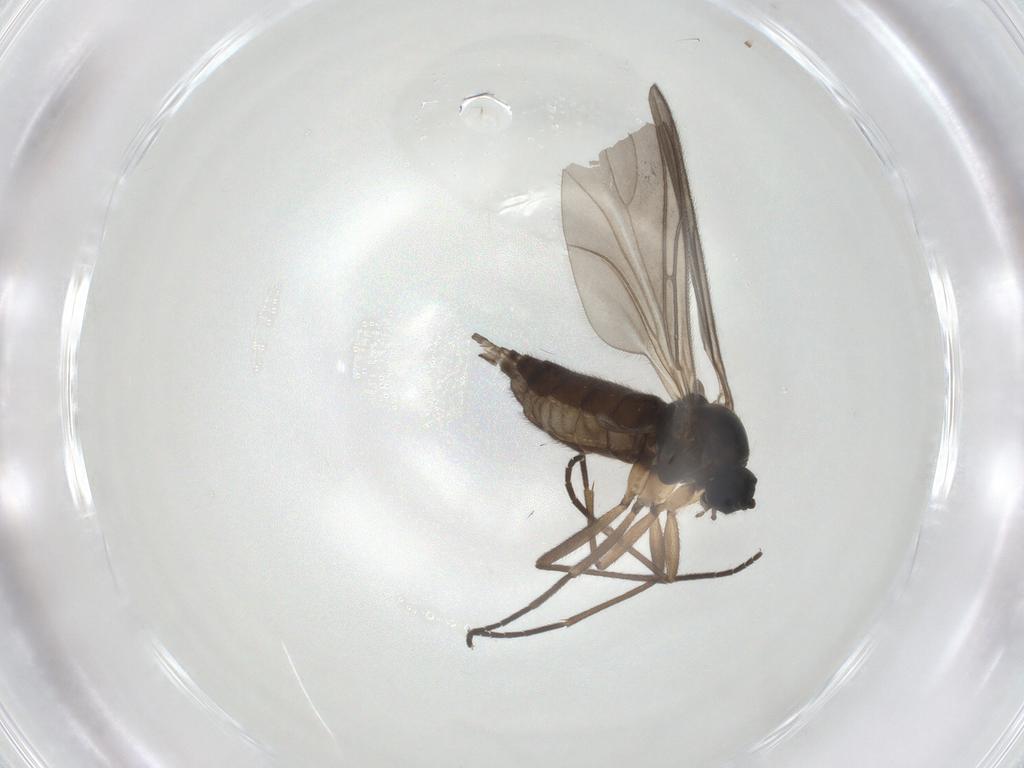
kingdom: Animalia
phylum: Arthropoda
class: Insecta
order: Diptera
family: Sciaridae
